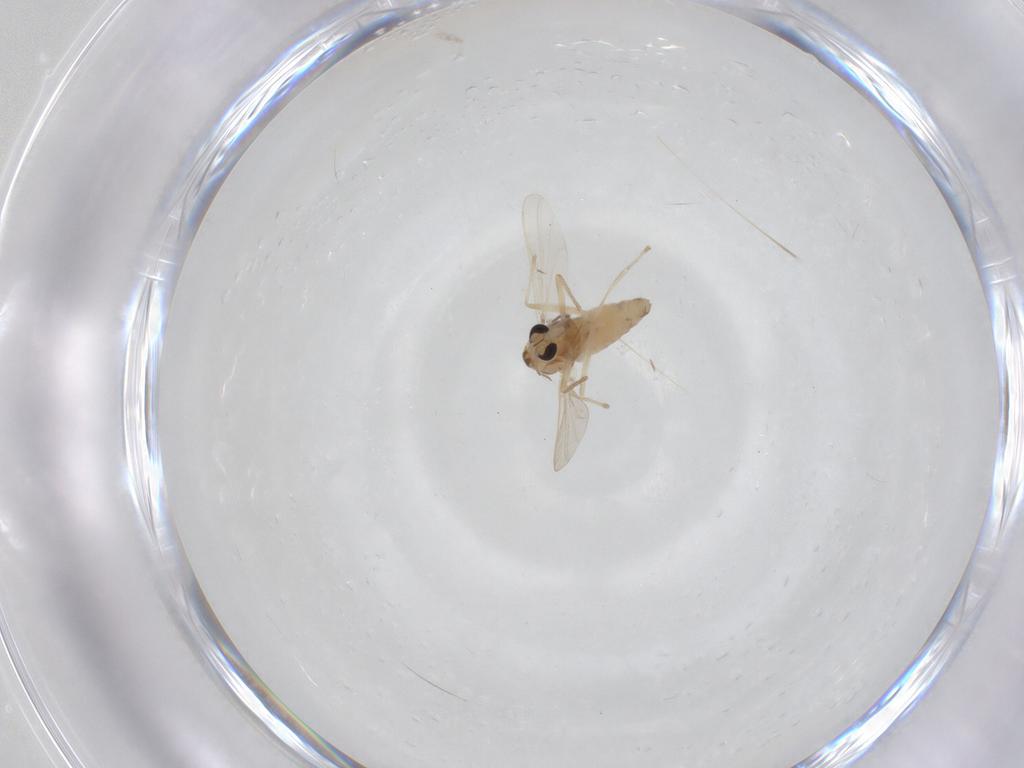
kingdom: Animalia
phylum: Arthropoda
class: Insecta
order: Diptera
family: Chironomidae
